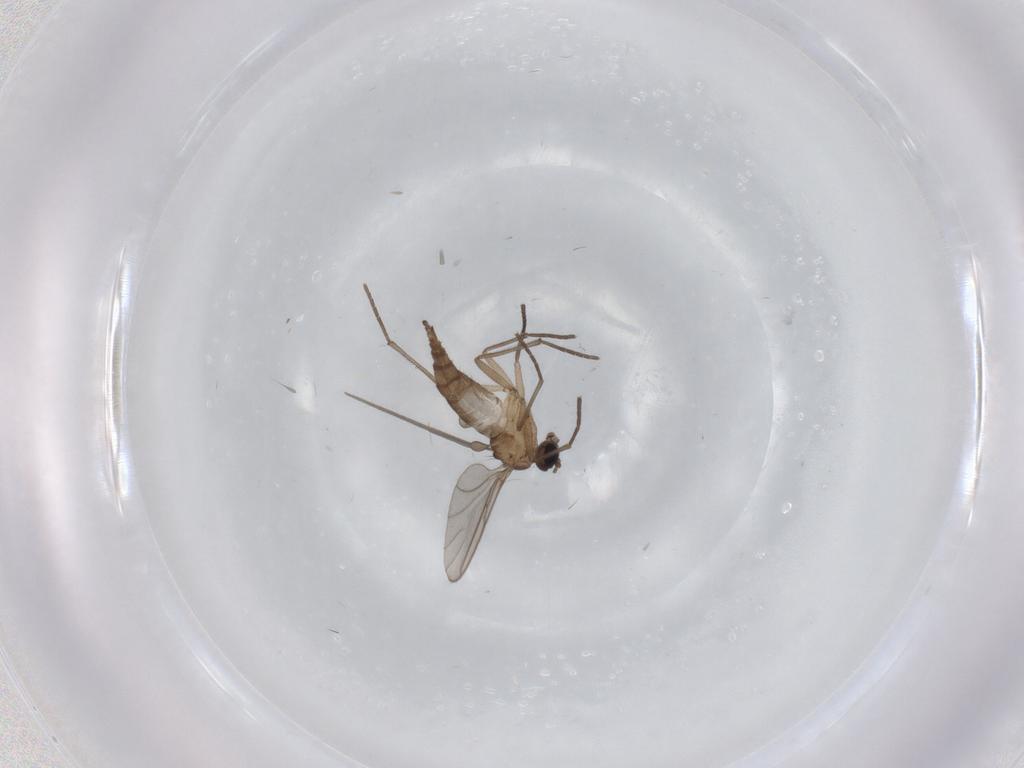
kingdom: Animalia
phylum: Arthropoda
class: Insecta
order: Diptera
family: Sciaridae
